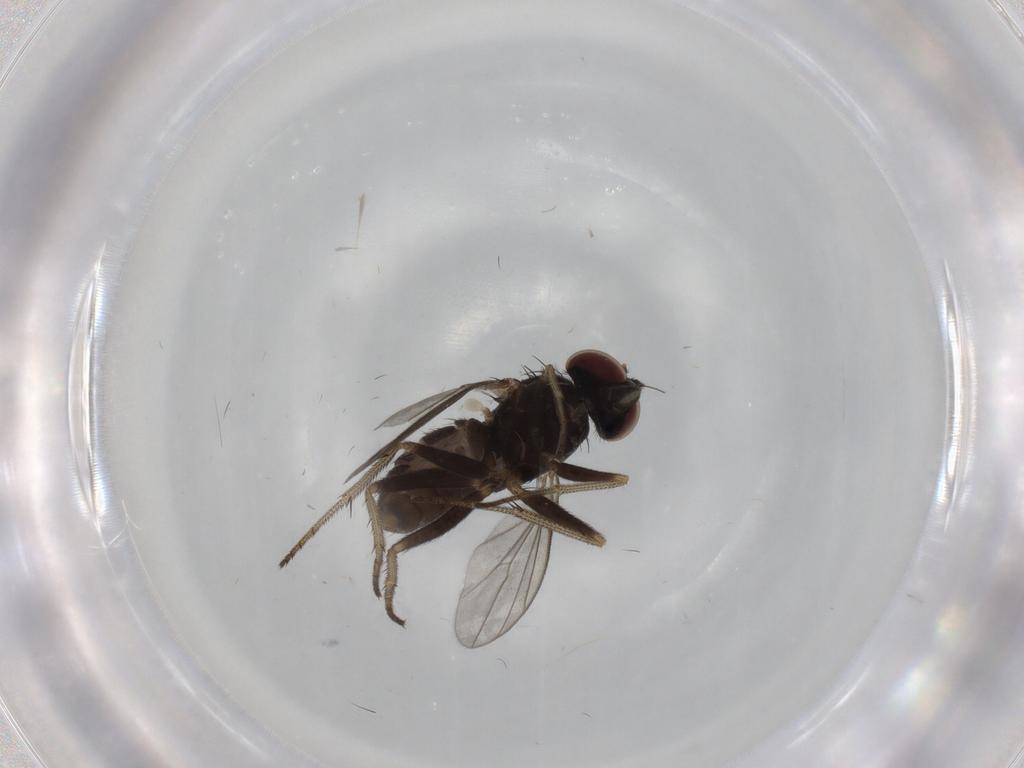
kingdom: Animalia
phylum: Arthropoda
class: Insecta
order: Diptera
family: Dolichopodidae
